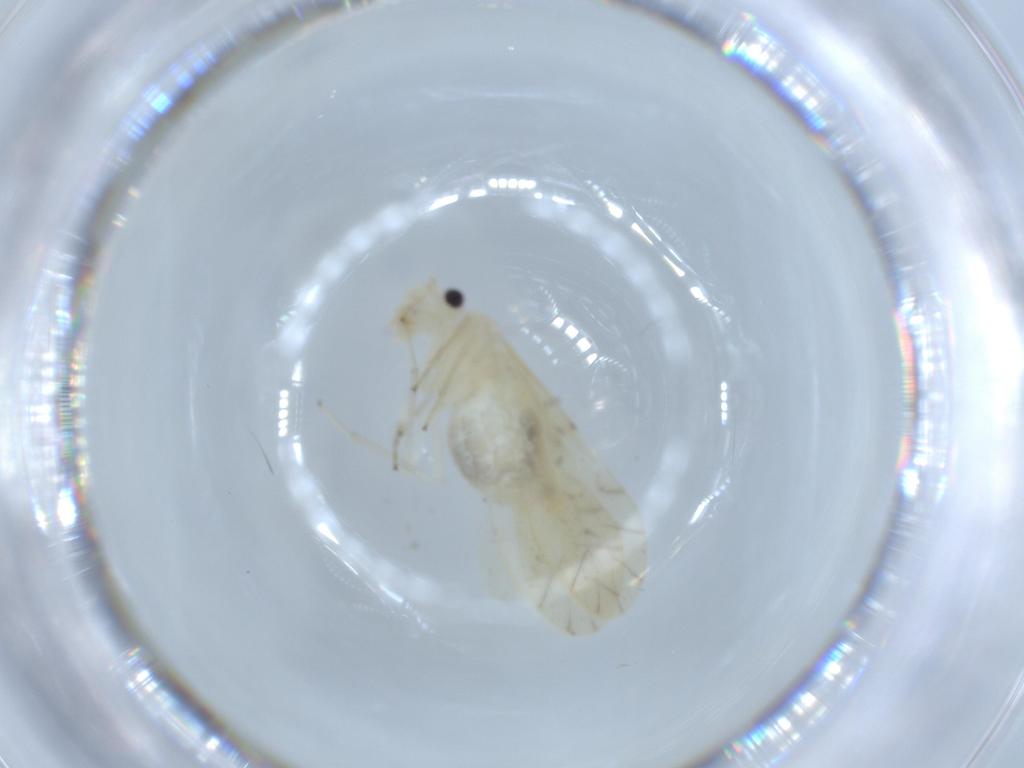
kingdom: Animalia
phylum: Arthropoda
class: Insecta
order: Psocodea
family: Caeciliusidae
